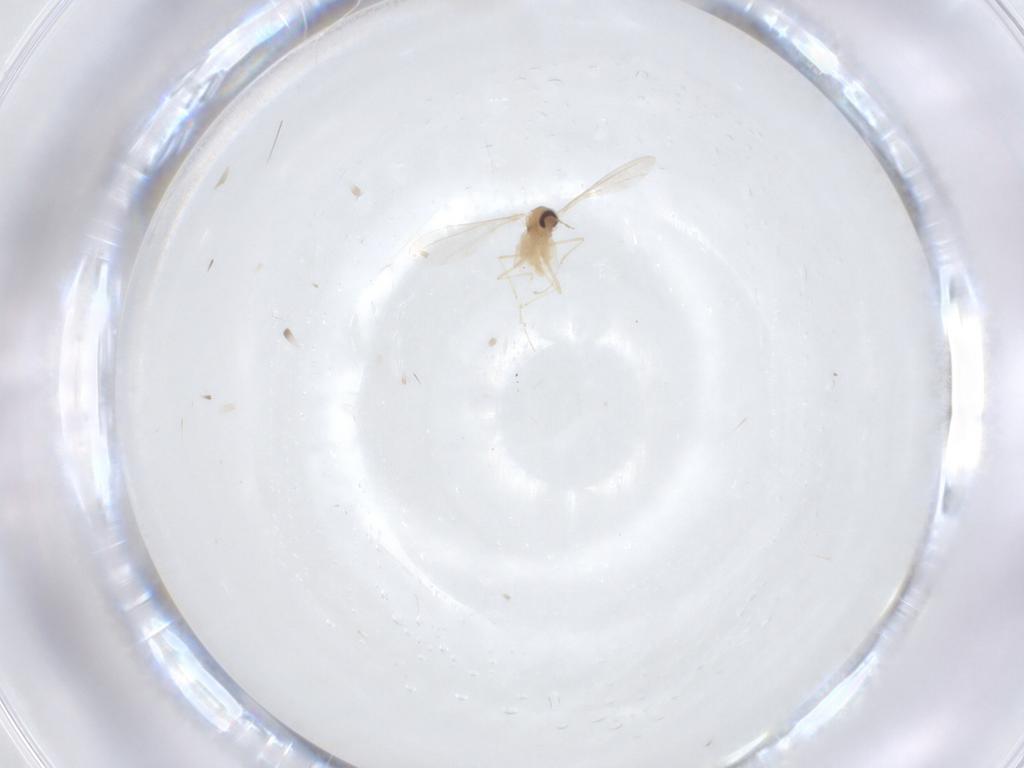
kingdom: Animalia
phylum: Arthropoda
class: Insecta
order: Diptera
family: Cecidomyiidae
